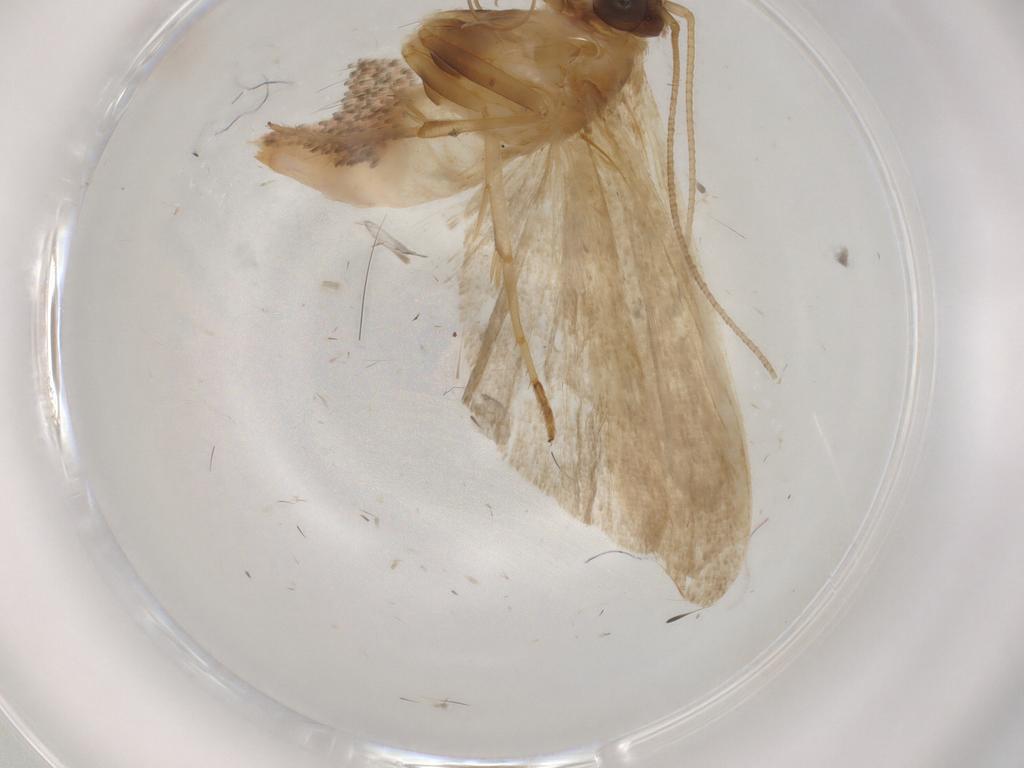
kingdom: Animalia
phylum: Arthropoda
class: Insecta
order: Lepidoptera
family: Noctuidae
